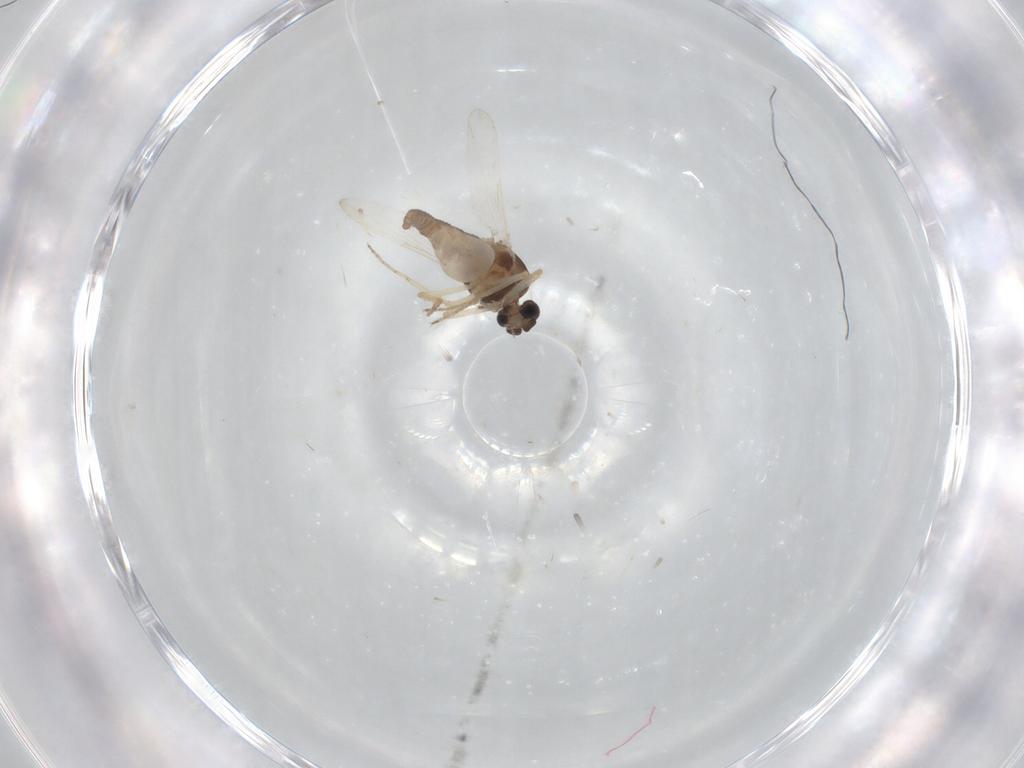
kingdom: Animalia
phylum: Arthropoda
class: Insecta
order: Diptera
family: Ceratopogonidae
